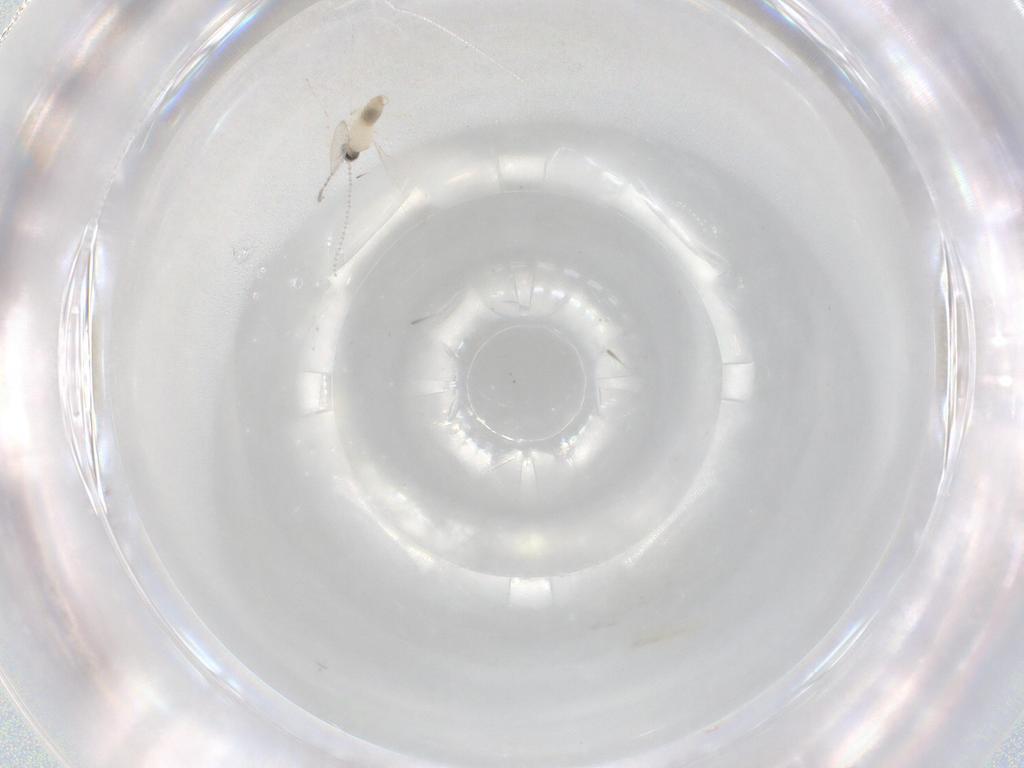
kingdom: Animalia
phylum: Arthropoda
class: Insecta
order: Diptera
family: Cecidomyiidae
